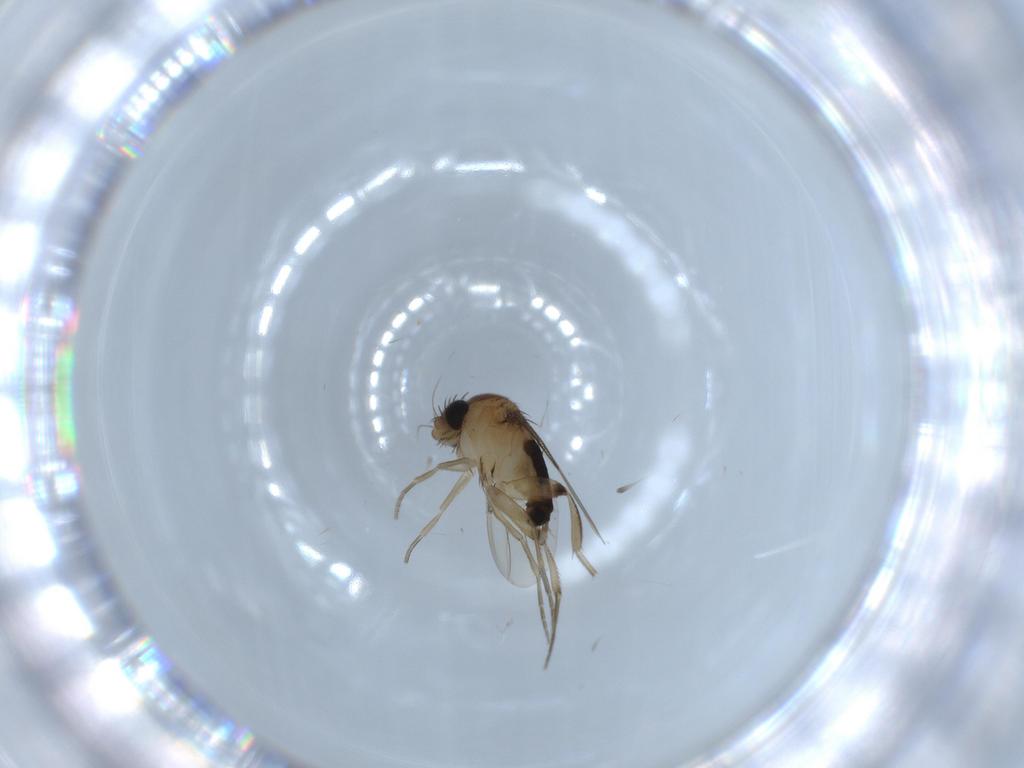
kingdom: Animalia
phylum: Arthropoda
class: Insecta
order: Diptera
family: Phoridae
